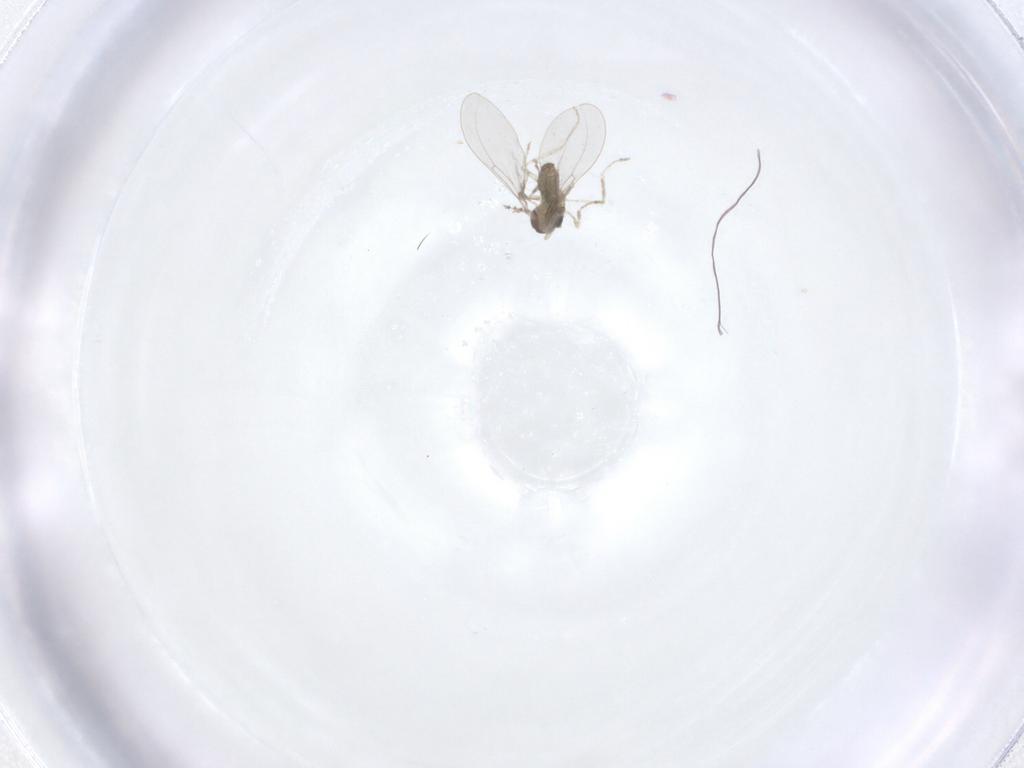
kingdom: Animalia
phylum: Arthropoda
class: Insecta
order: Diptera
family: Cecidomyiidae
